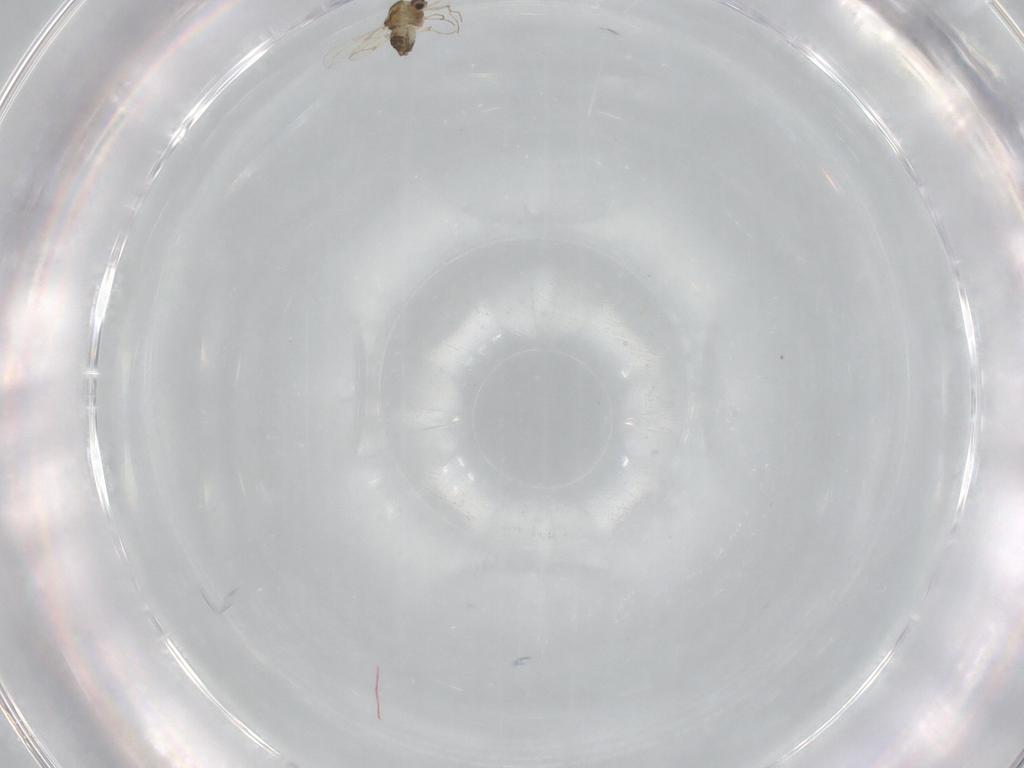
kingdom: Animalia
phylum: Arthropoda
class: Insecta
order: Diptera
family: Chironomidae
